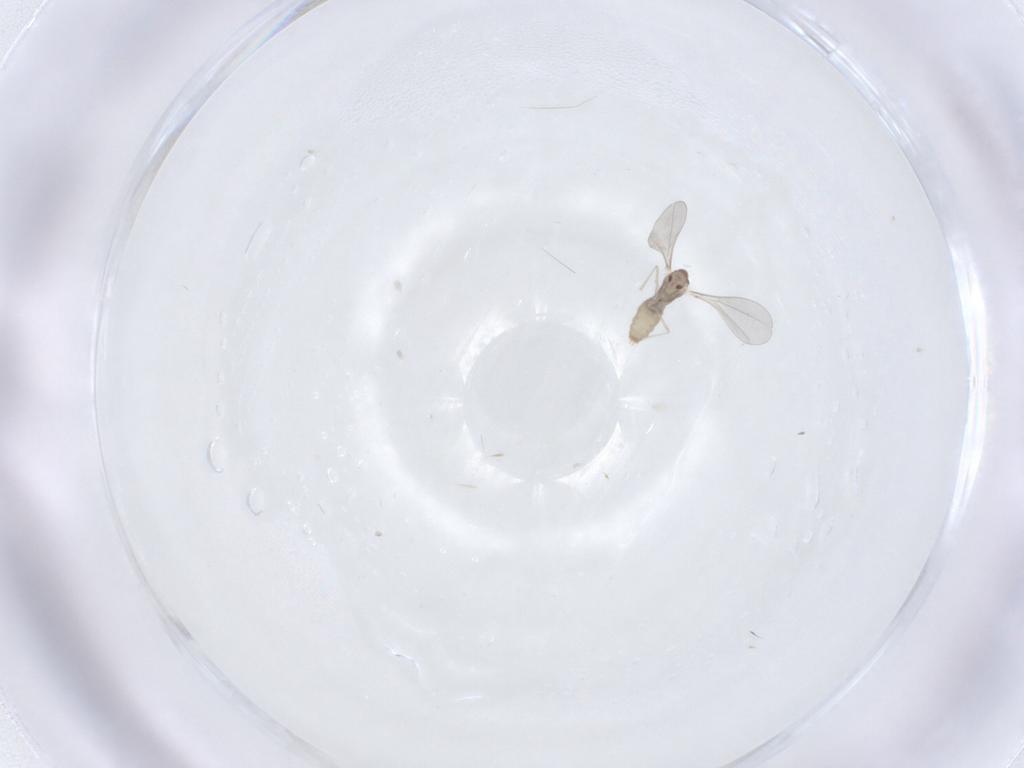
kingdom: Animalia
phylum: Arthropoda
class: Insecta
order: Diptera
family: Cecidomyiidae
